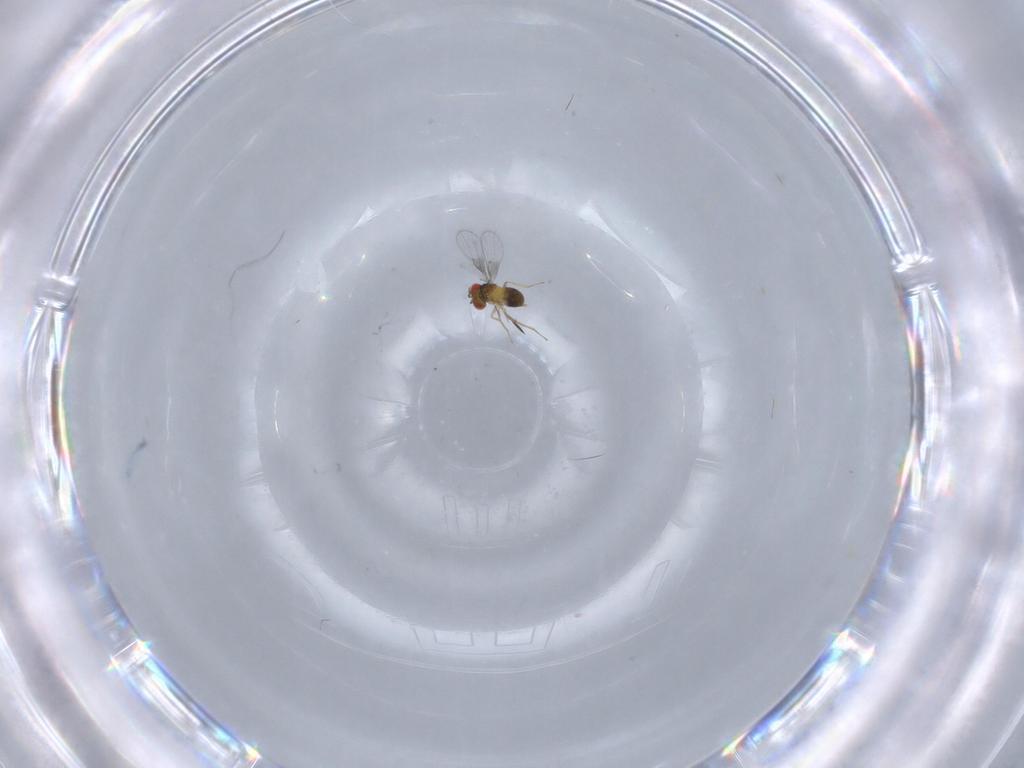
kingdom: Animalia
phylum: Arthropoda
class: Insecta
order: Hymenoptera
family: Trichogrammatidae
